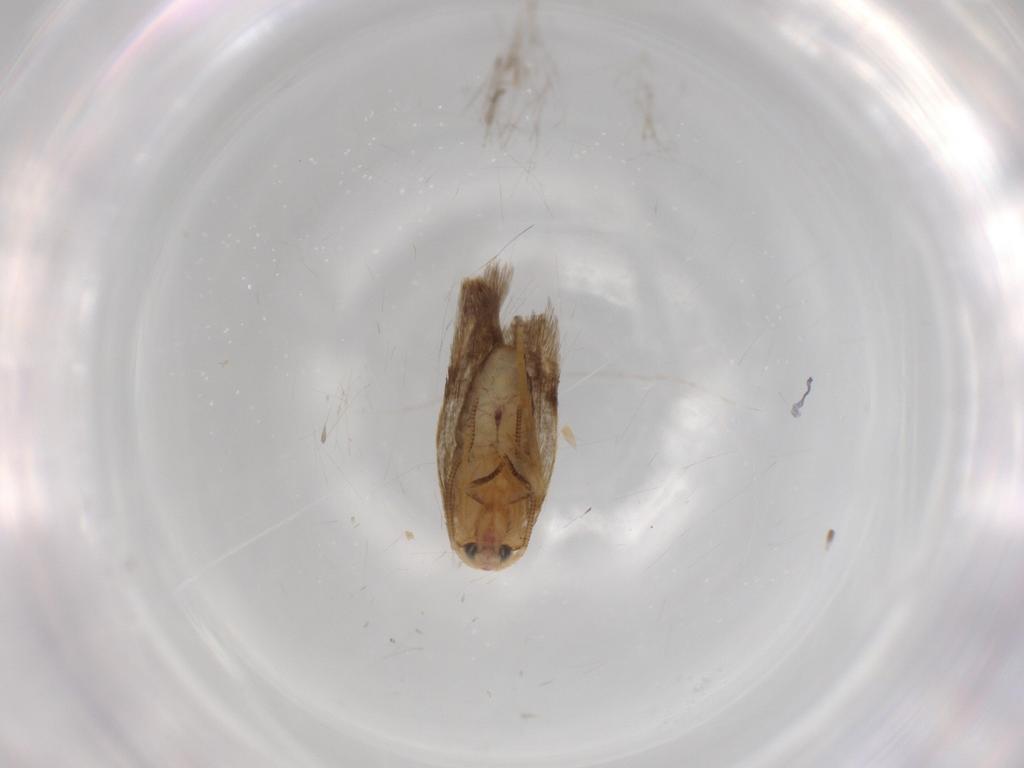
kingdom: Animalia
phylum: Arthropoda
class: Insecta
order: Lepidoptera
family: Nepticulidae
